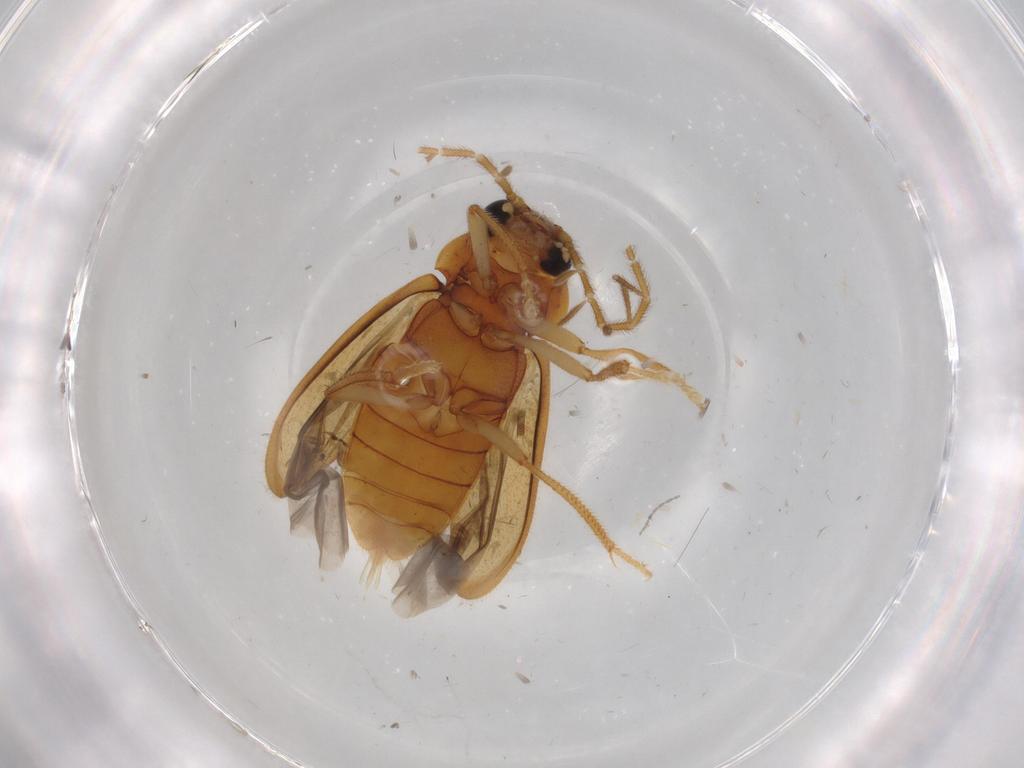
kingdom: Animalia
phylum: Arthropoda
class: Insecta
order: Coleoptera
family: Ptilodactylidae
